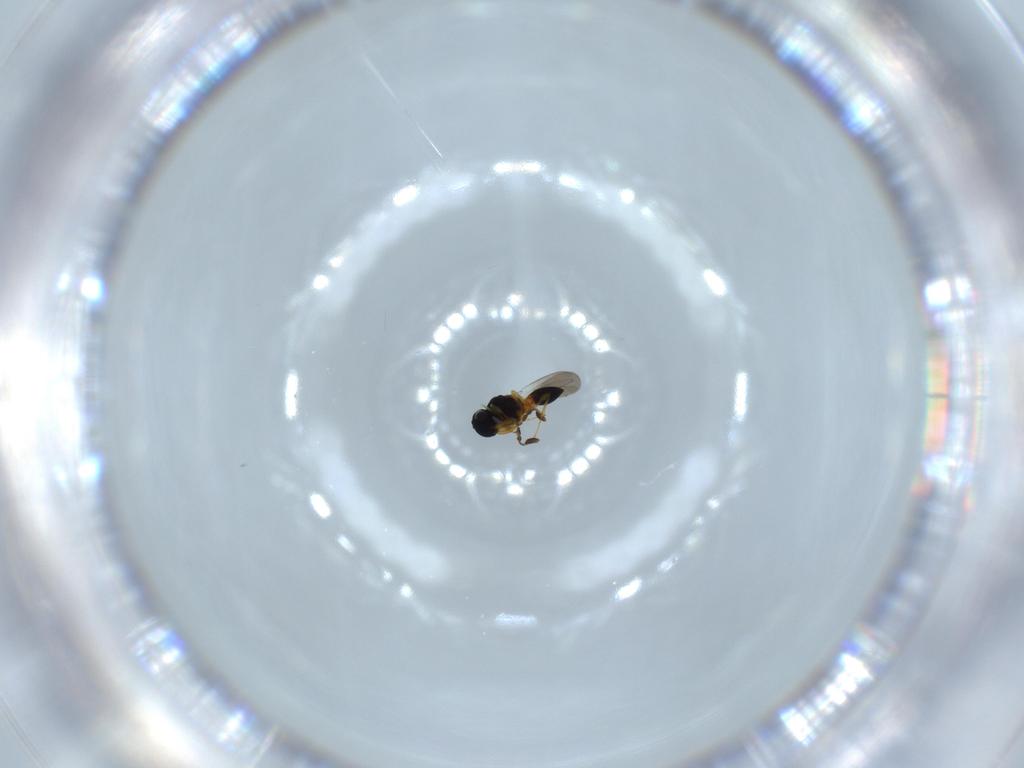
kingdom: Animalia
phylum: Arthropoda
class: Insecta
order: Hymenoptera
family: Platygastridae
